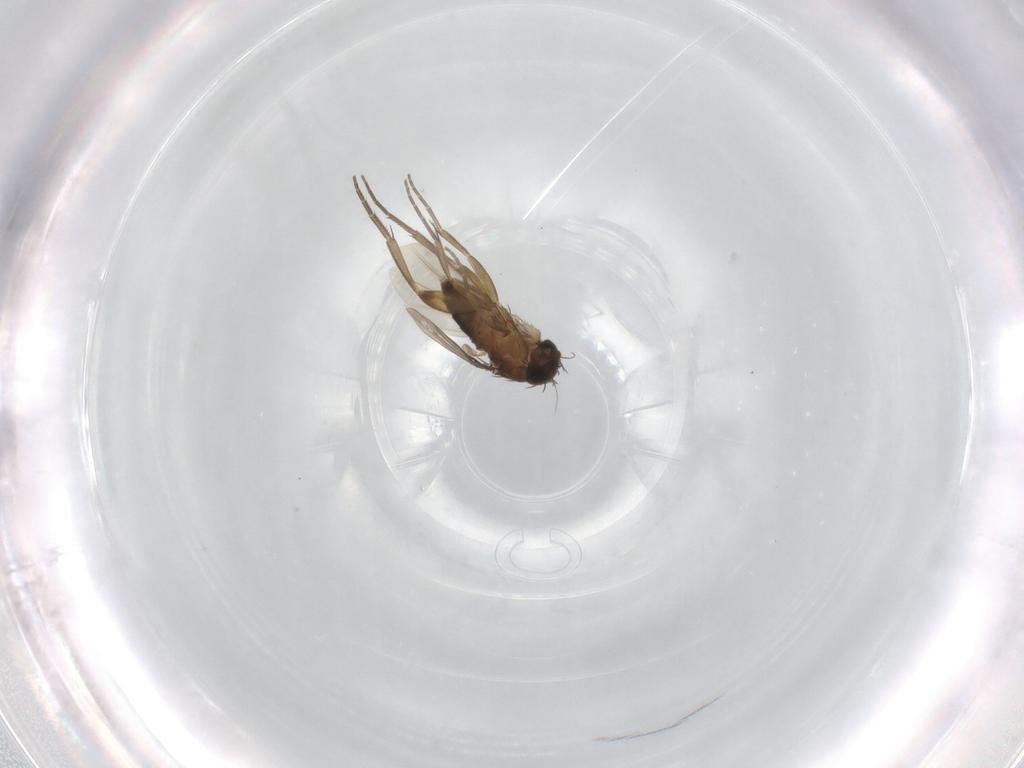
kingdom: Animalia
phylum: Arthropoda
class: Insecta
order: Diptera
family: Phoridae
